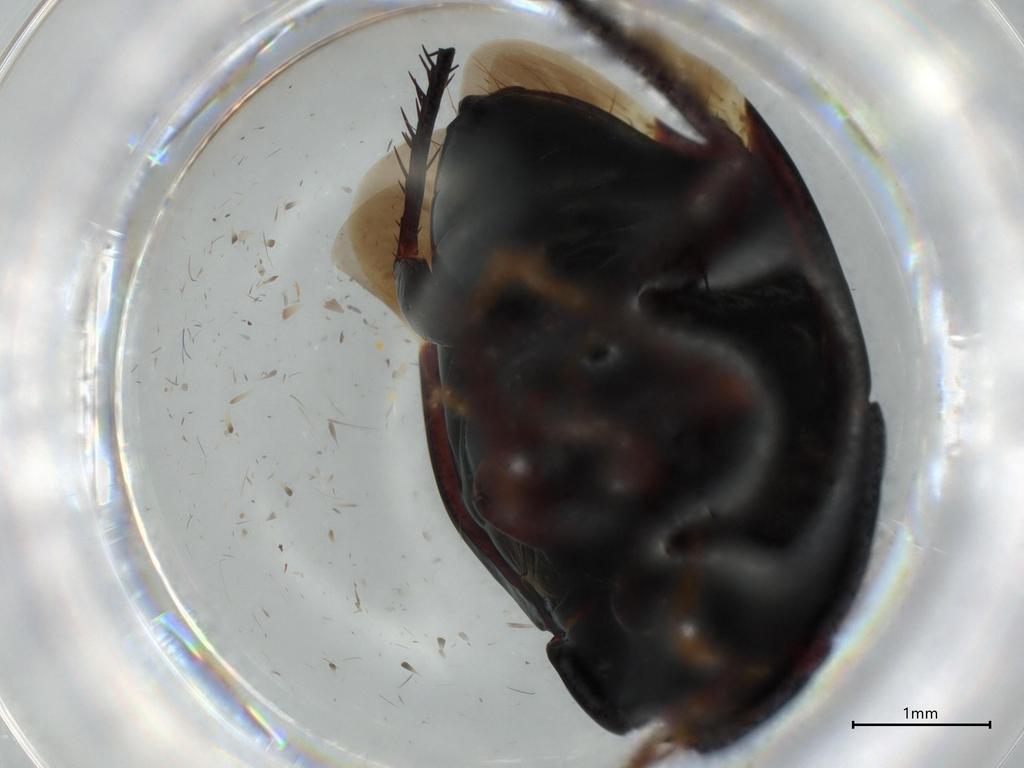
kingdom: Animalia
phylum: Arthropoda
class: Insecta
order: Hemiptera
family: Cydnidae
